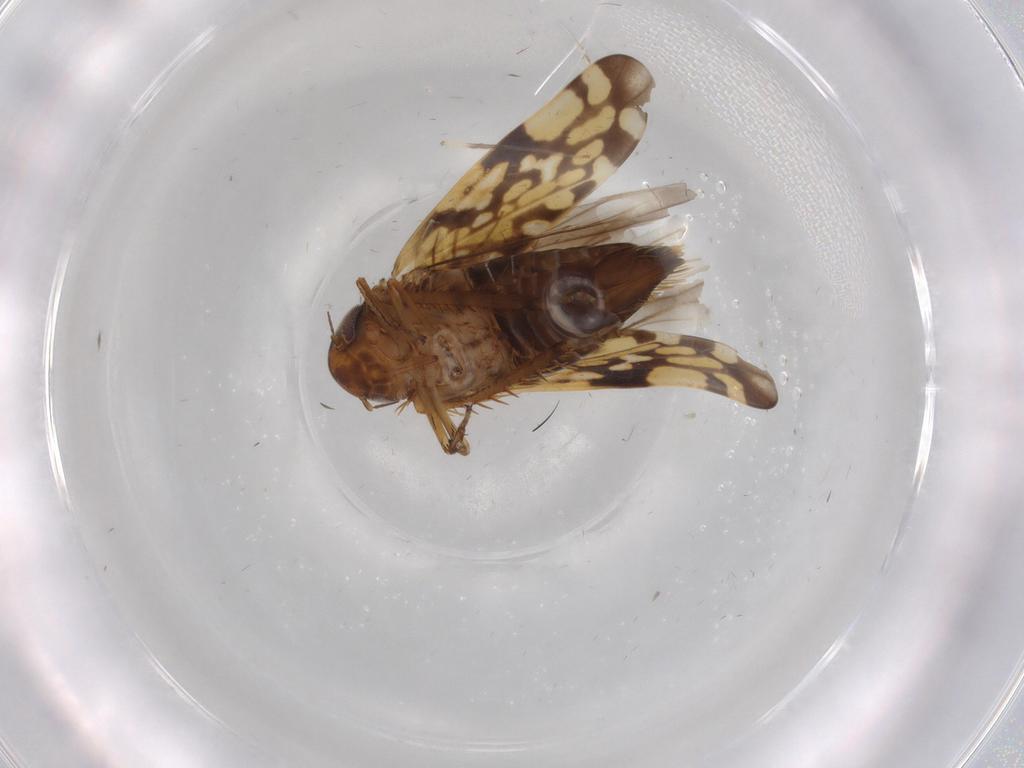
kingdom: Animalia
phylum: Arthropoda
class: Insecta
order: Hemiptera
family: Cicadellidae
